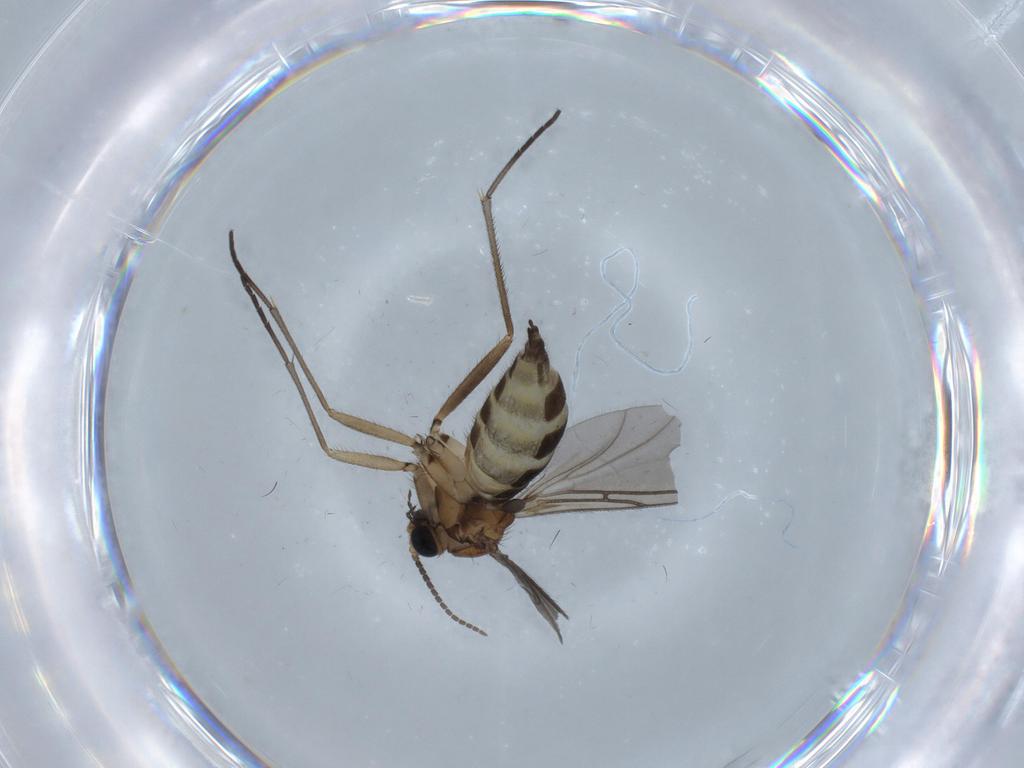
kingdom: Animalia
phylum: Arthropoda
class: Insecta
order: Diptera
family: Sciaridae
